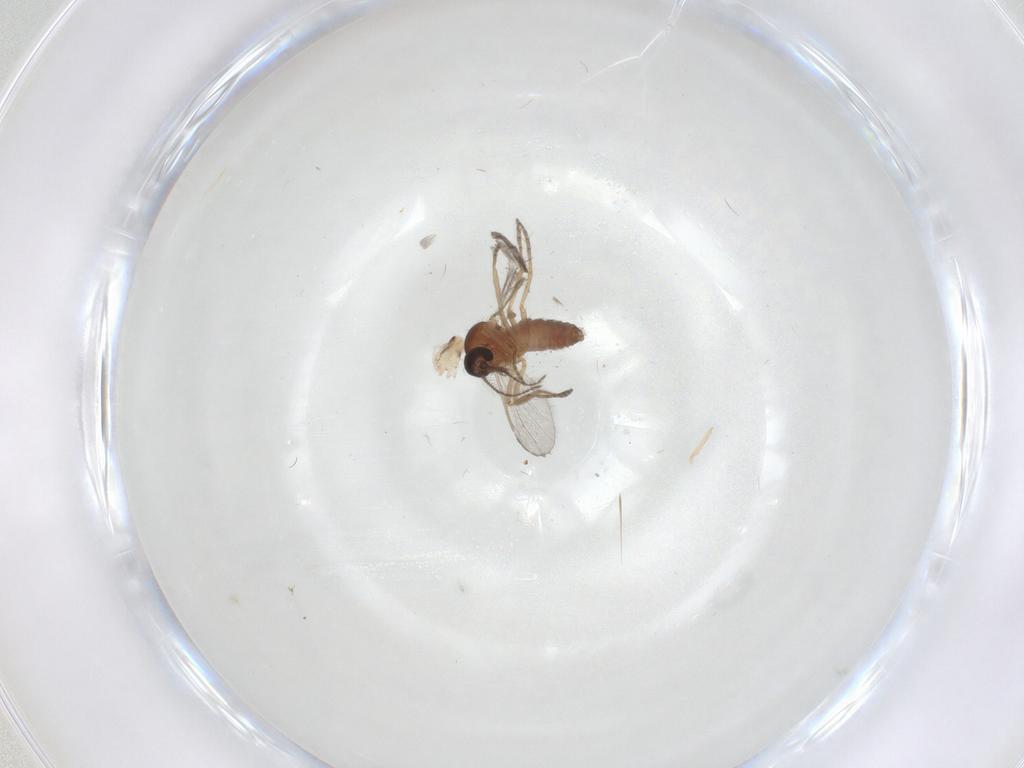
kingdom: Animalia
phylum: Arthropoda
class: Insecta
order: Diptera
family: Ceratopogonidae
